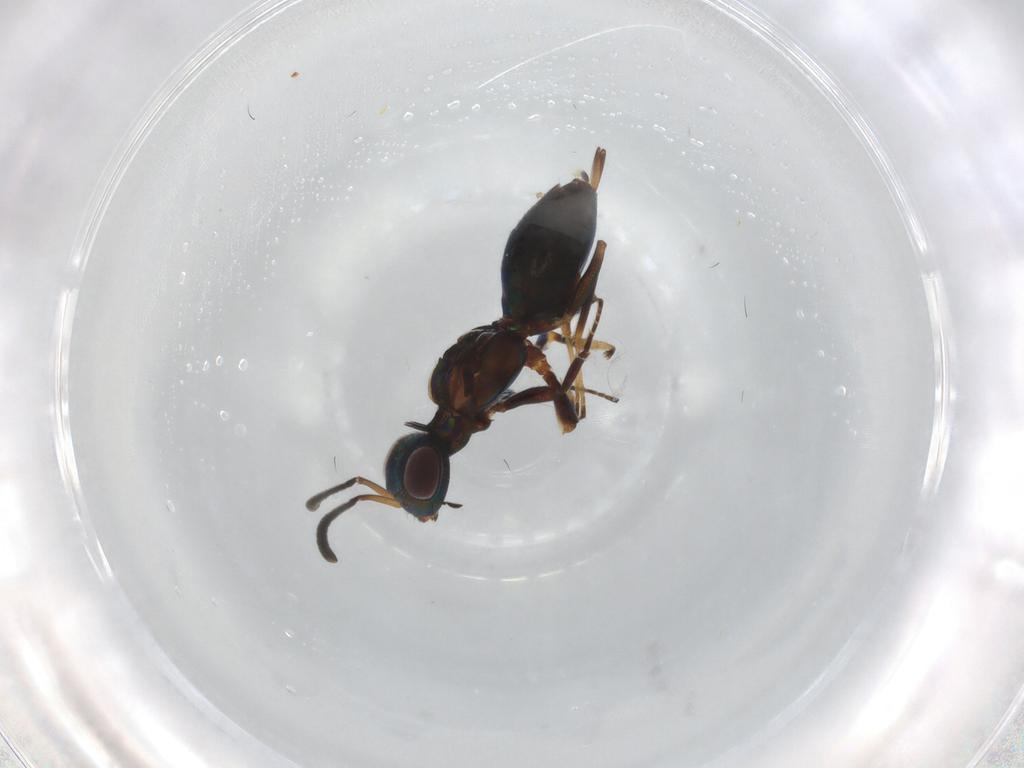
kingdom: Animalia
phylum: Arthropoda
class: Insecta
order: Hymenoptera
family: Eupelmidae
